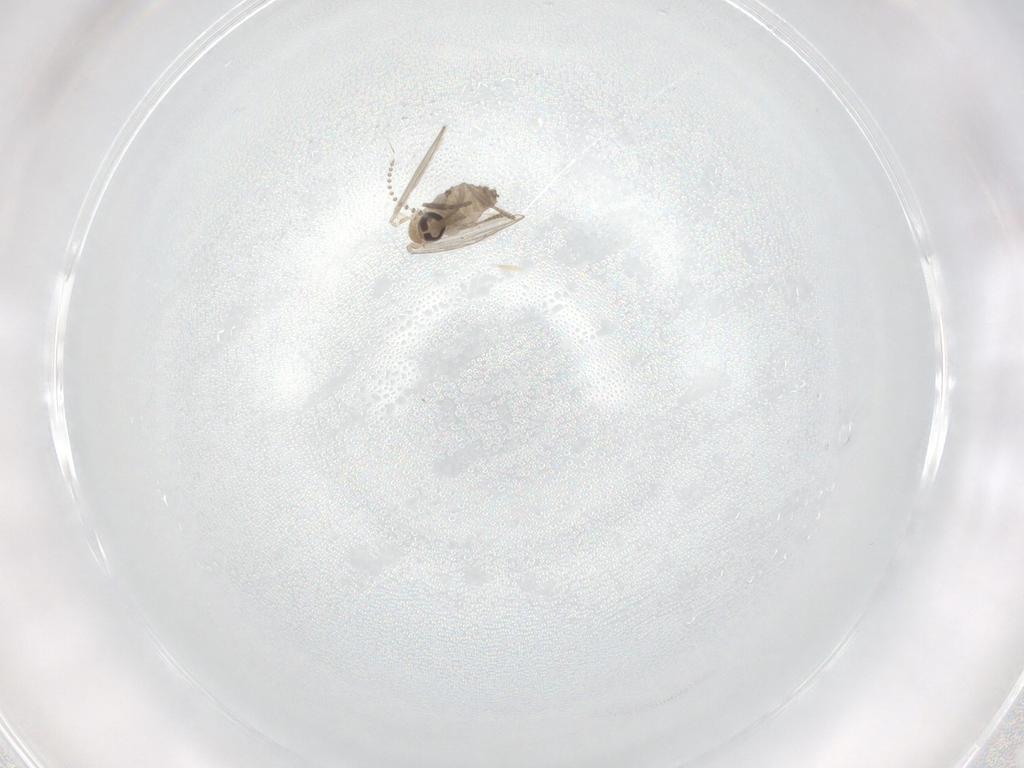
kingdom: Animalia
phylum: Arthropoda
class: Insecta
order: Diptera
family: Psychodidae
